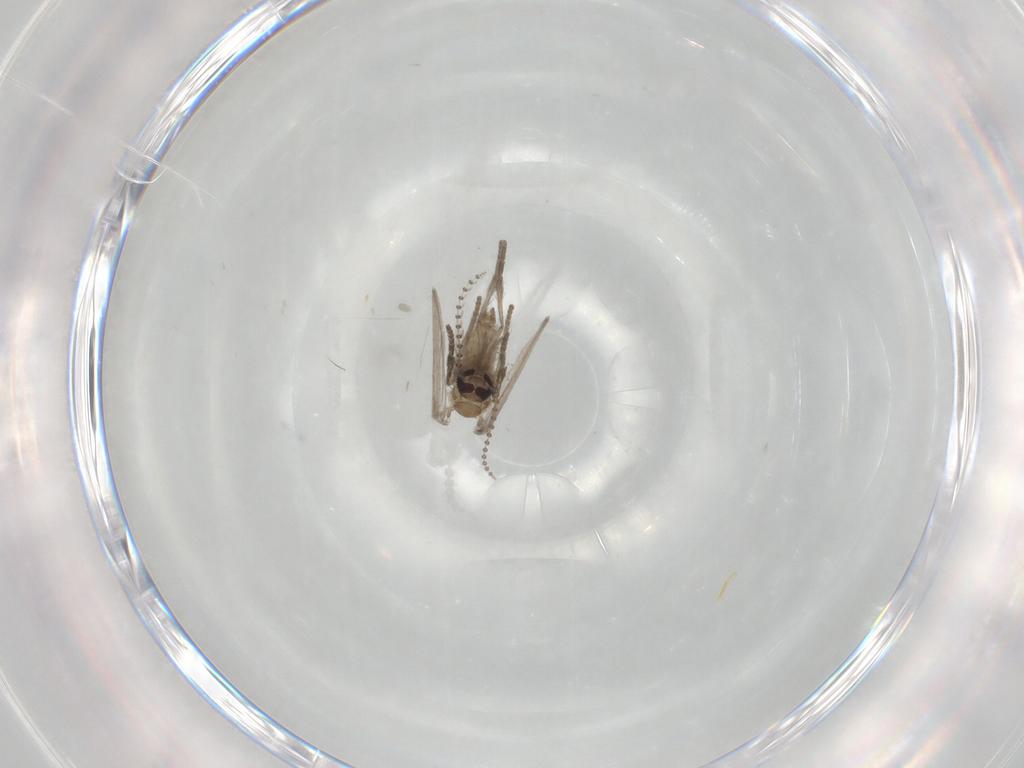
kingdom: Animalia
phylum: Arthropoda
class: Insecta
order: Diptera
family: Psychodidae
